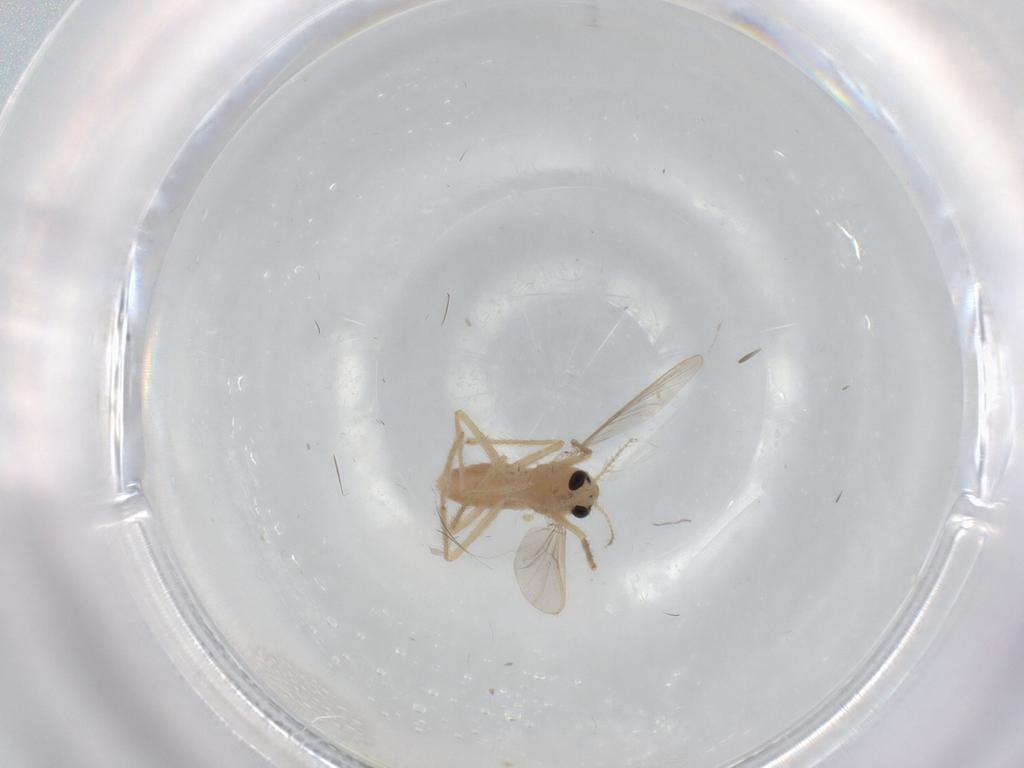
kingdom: Animalia
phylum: Arthropoda
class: Insecta
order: Diptera
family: Chironomidae
